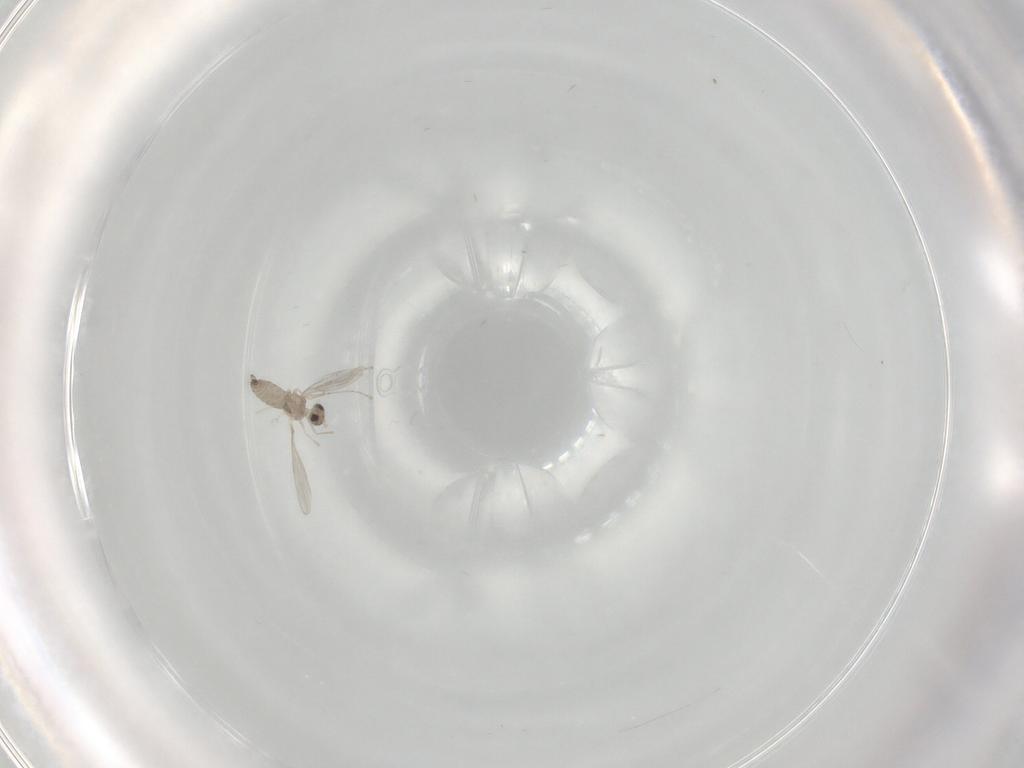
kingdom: Animalia
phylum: Arthropoda
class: Insecta
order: Diptera
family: Cecidomyiidae
